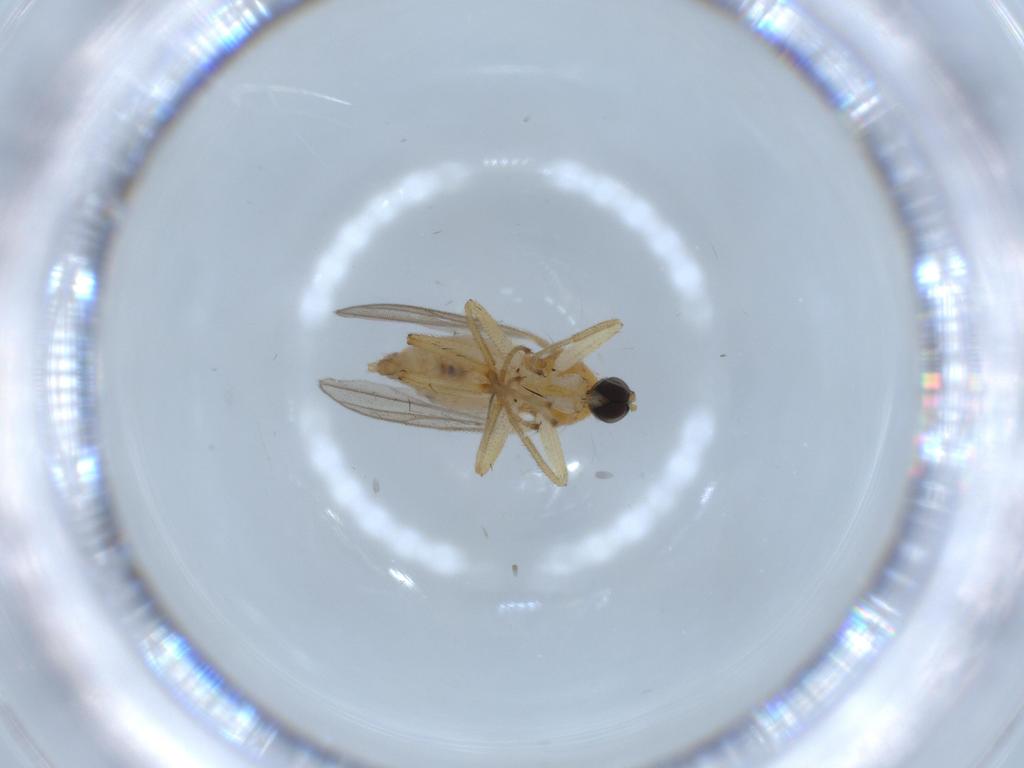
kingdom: Animalia
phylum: Arthropoda
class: Insecta
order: Diptera
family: Hybotidae
